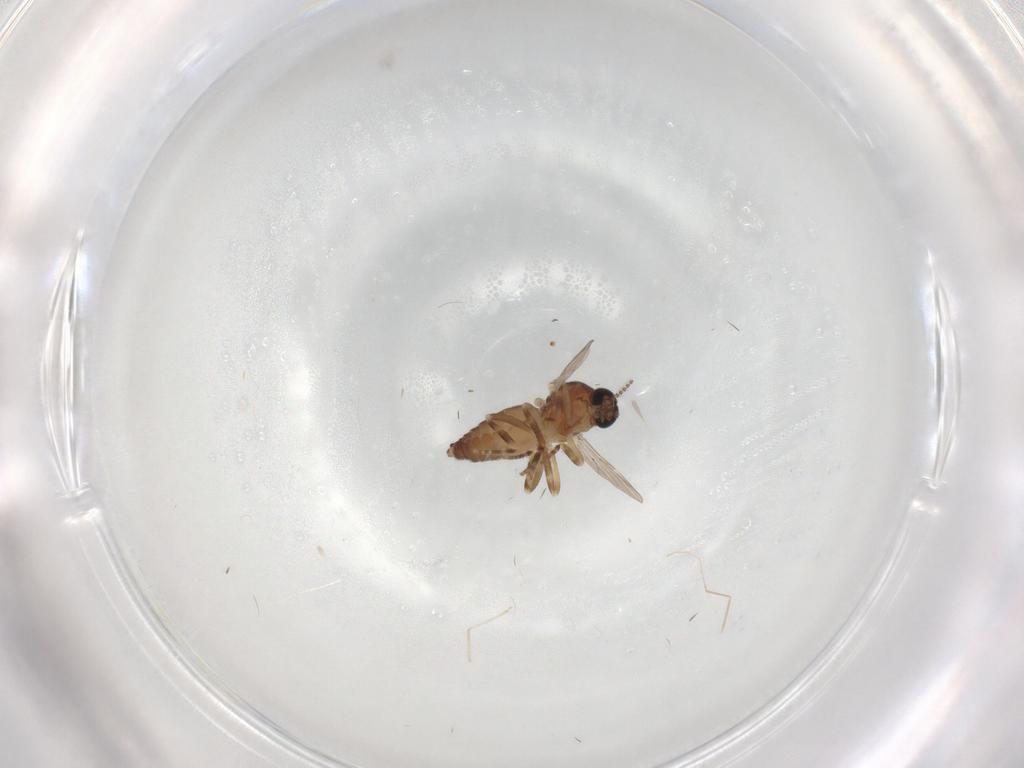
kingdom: Animalia
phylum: Arthropoda
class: Insecta
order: Diptera
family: Cecidomyiidae
